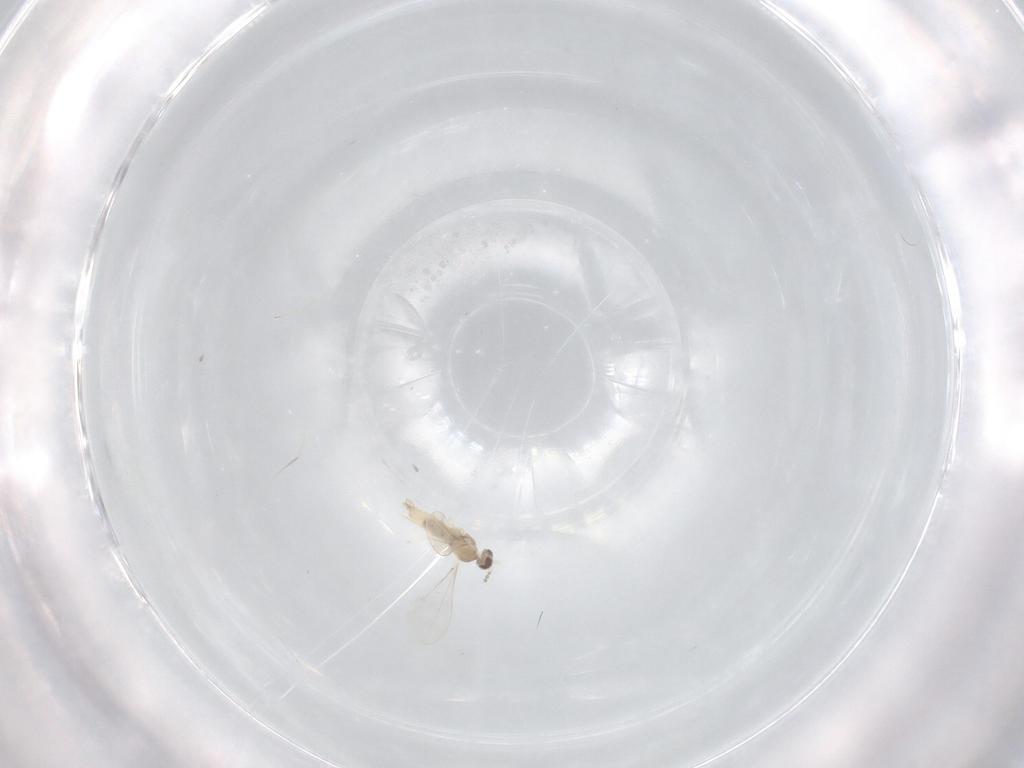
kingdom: Animalia
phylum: Arthropoda
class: Insecta
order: Diptera
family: Cecidomyiidae
